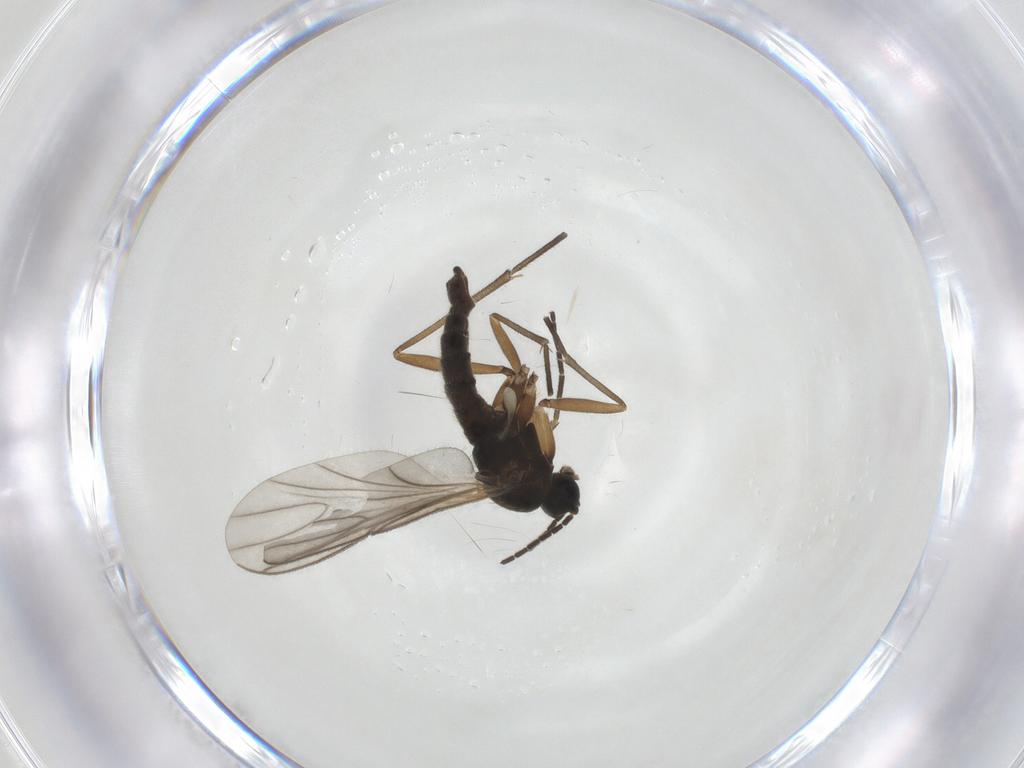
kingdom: Animalia
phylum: Arthropoda
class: Insecta
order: Diptera
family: Sciaridae
